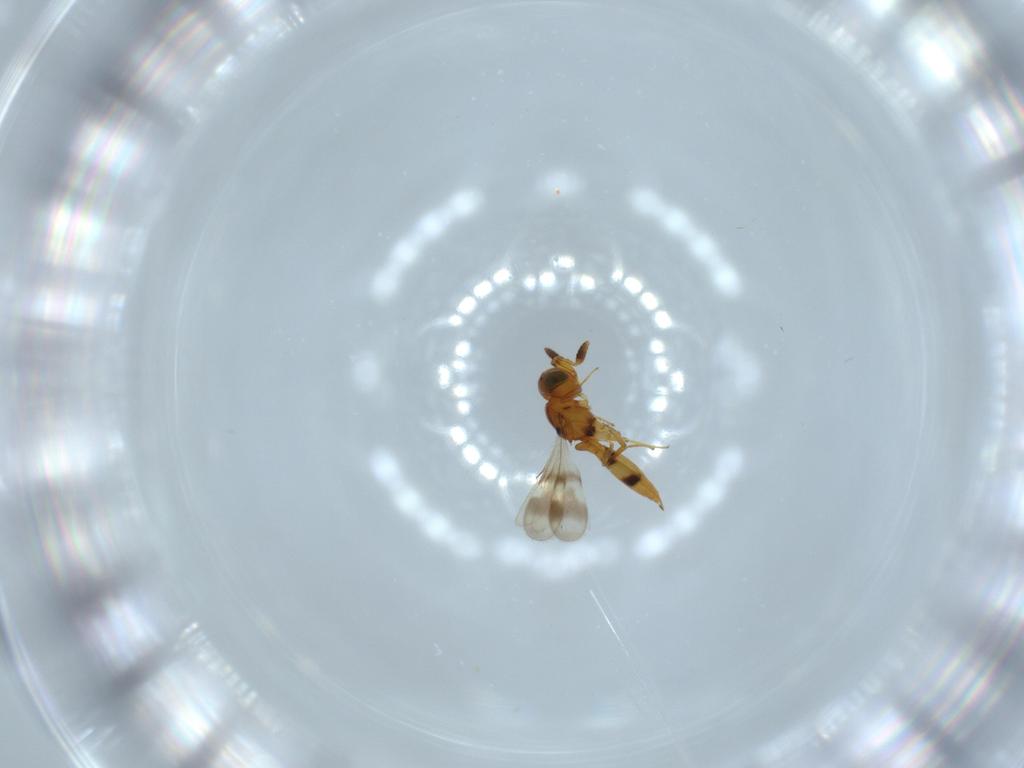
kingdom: Animalia
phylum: Arthropoda
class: Insecta
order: Hymenoptera
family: Scelionidae
